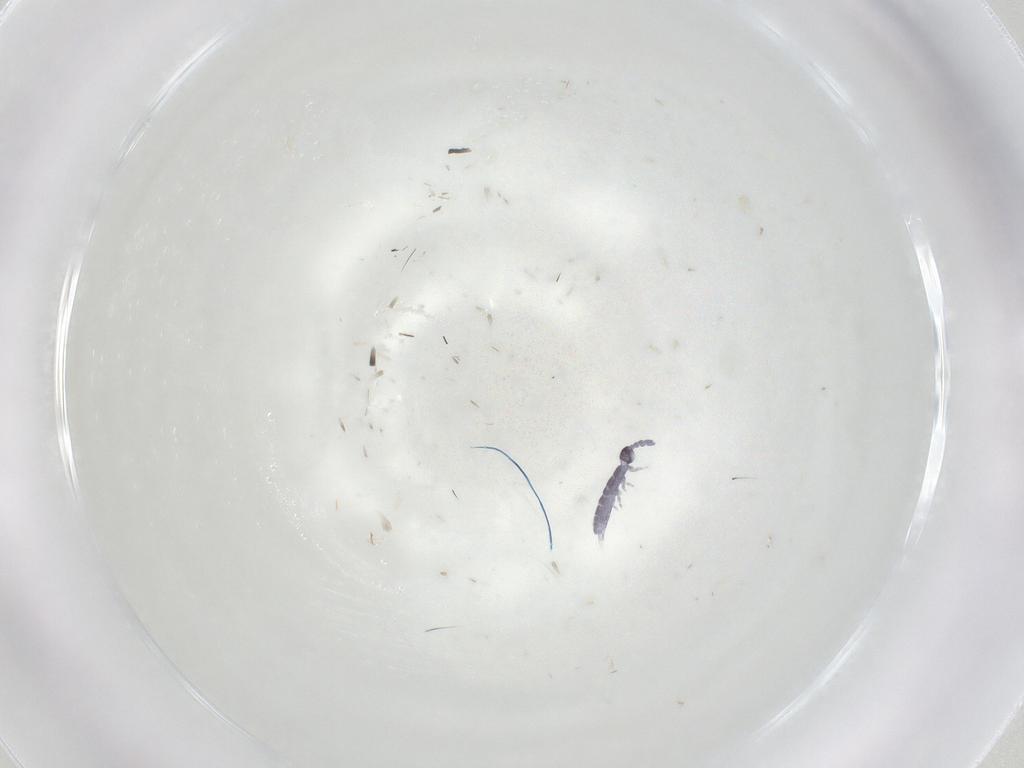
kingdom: Animalia
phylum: Arthropoda
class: Collembola
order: Entomobryomorpha
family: Isotomidae
